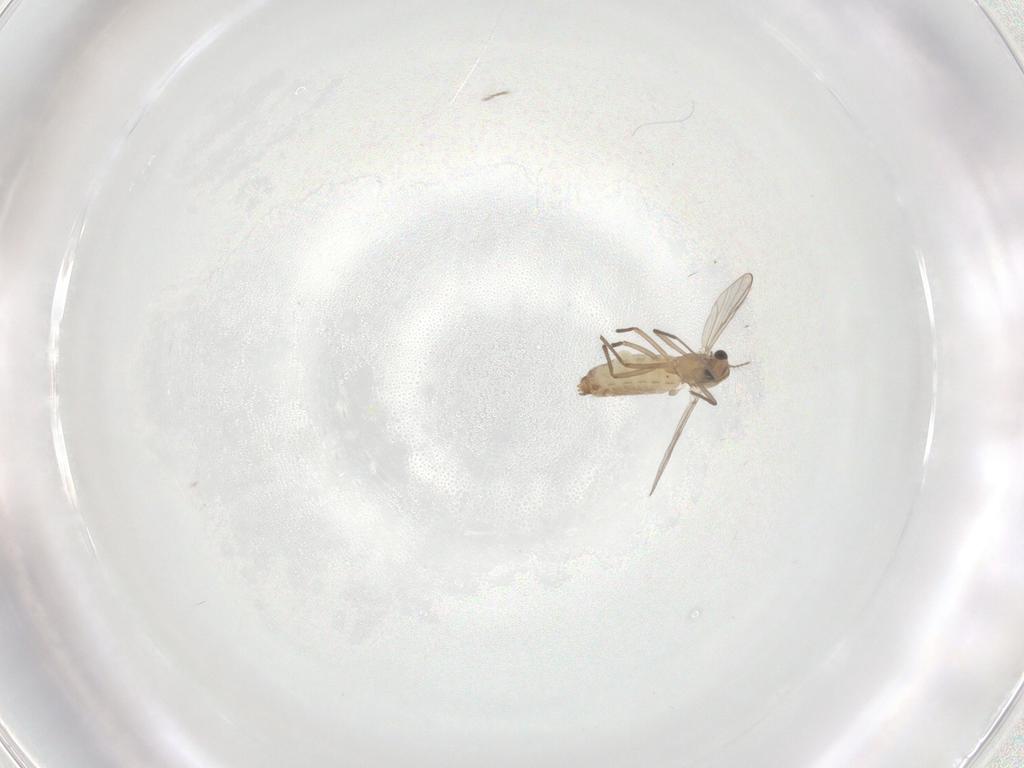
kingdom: Animalia
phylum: Arthropoda
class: Insecta
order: Diptera
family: Chironomidae
